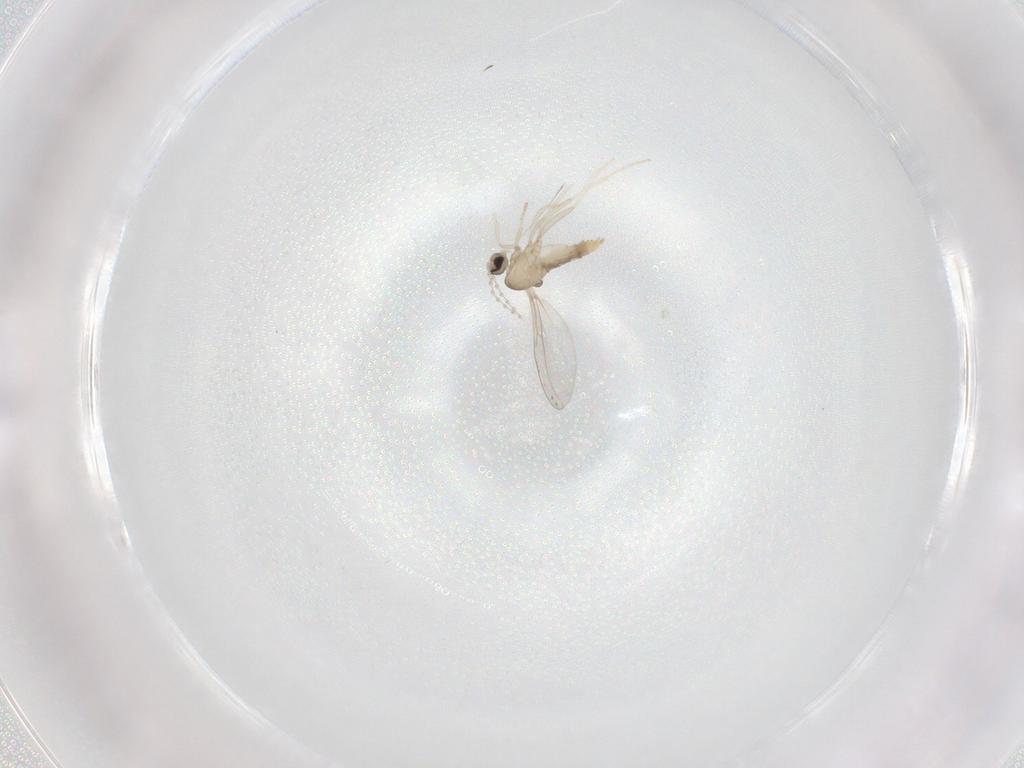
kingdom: Animalia
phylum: Arthropoda
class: Insecta
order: Diptera
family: Cecidomyiidae
